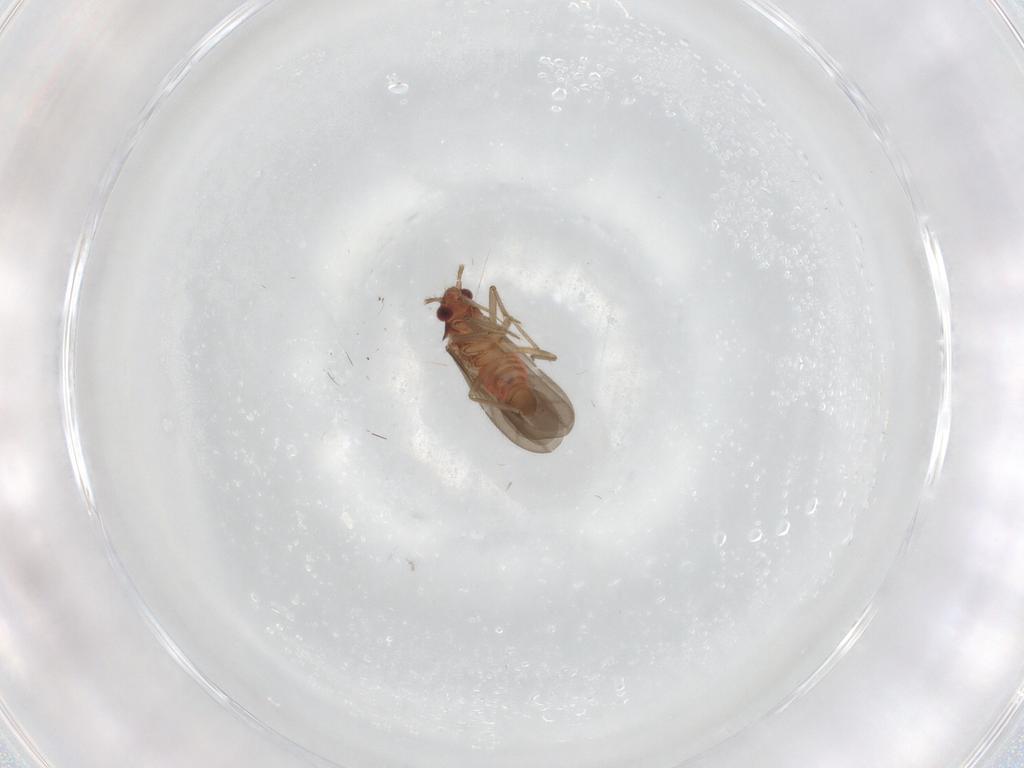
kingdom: Animalia
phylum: Arthropoda
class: Insecta
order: Hemiptera
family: Ceratocombidae
